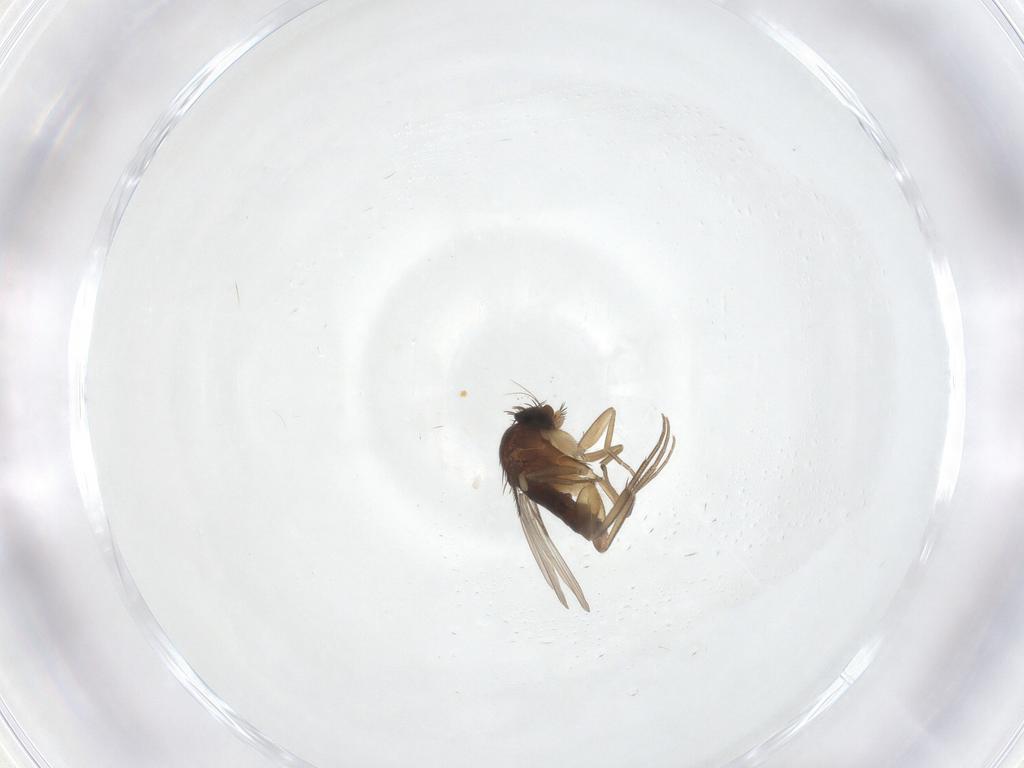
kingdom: Animalia
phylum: Arthropoda
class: Insecta
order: Diptera
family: Phoridae
